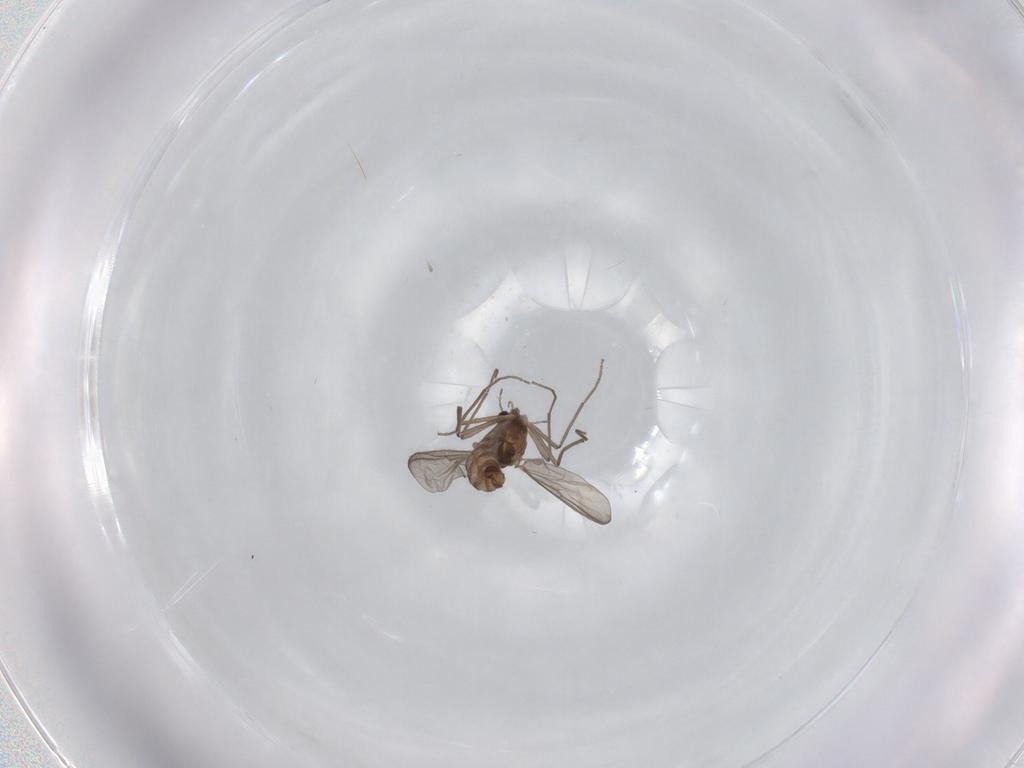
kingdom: Animalia
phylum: Arthropoda
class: Insecta
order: Diptera
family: Chironomidae
